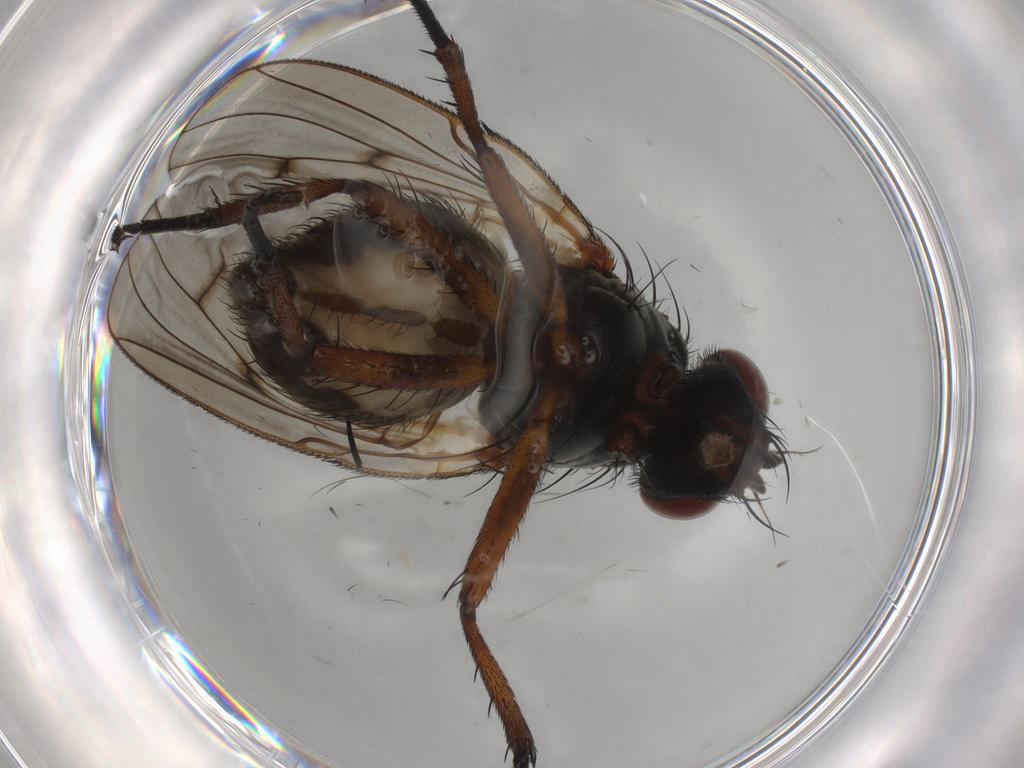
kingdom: Animalia
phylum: Arthropoda
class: Insecta
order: Diptera
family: Anthomyiidae
